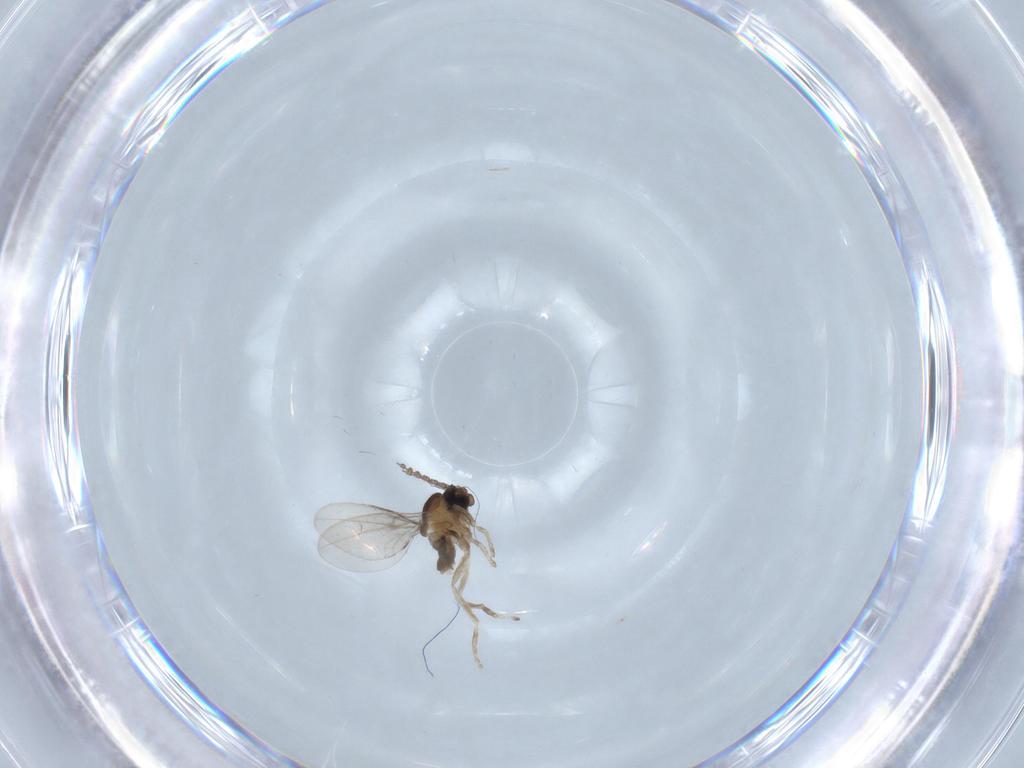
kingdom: Animalia
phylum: Arthropoda
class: Insecta
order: Diptera
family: Cecidomyiidae
